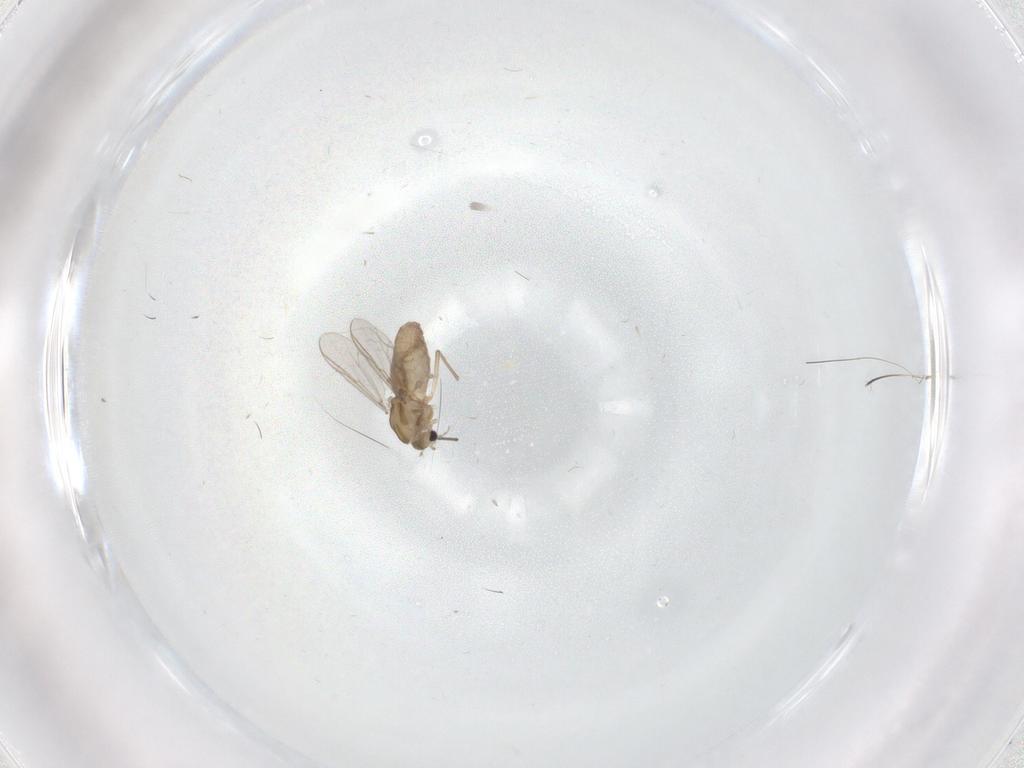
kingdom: Animalia
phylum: Arthropoda
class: Insecta
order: Diptera
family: Chironomidae
